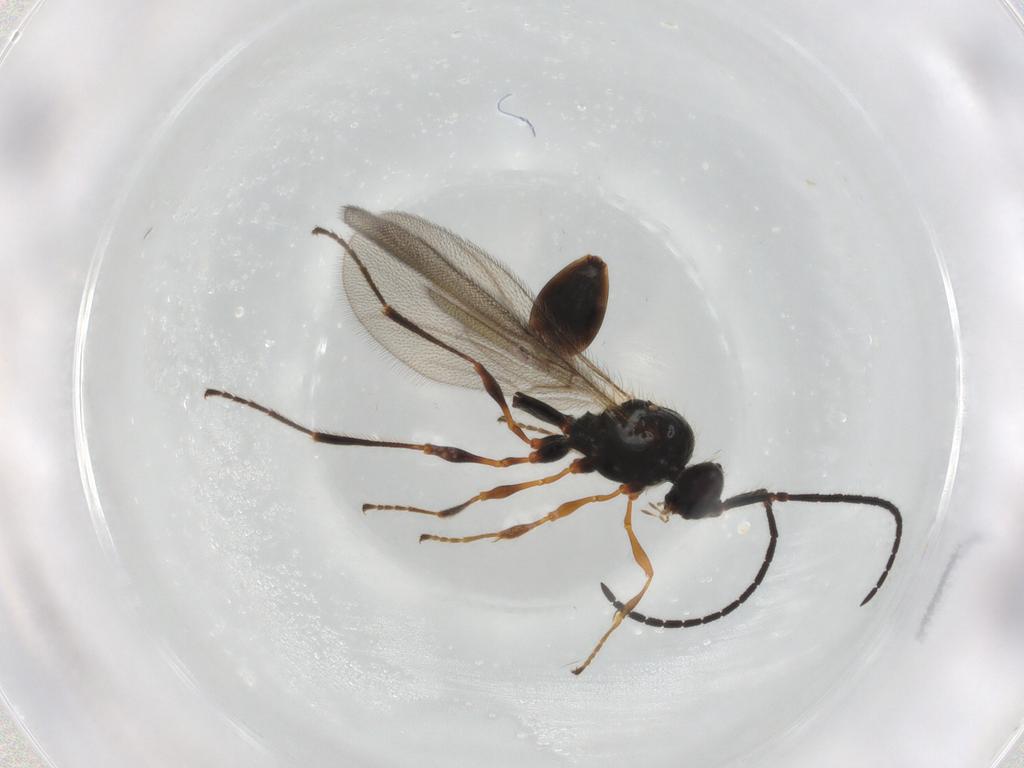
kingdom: Animalia
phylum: Arthropoda
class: Insecta
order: Hymenoptera
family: Diapriidae
